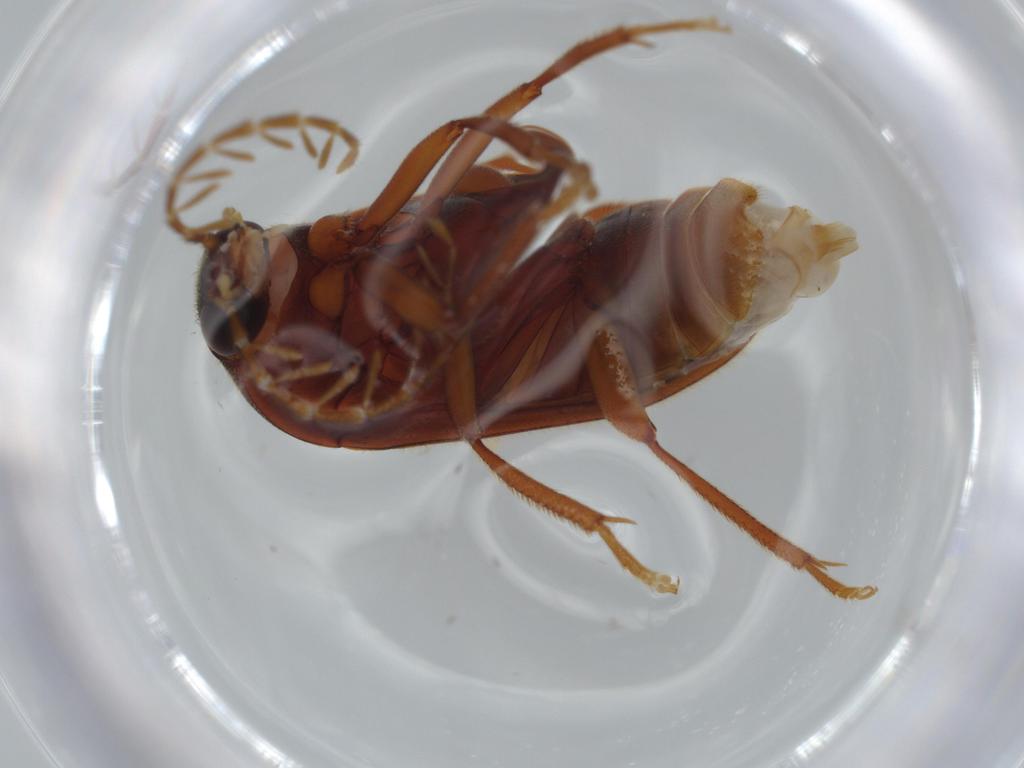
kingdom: Animalia
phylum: Arthropoda
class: Insecta
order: Coleoptera
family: Ptilodactylidae
